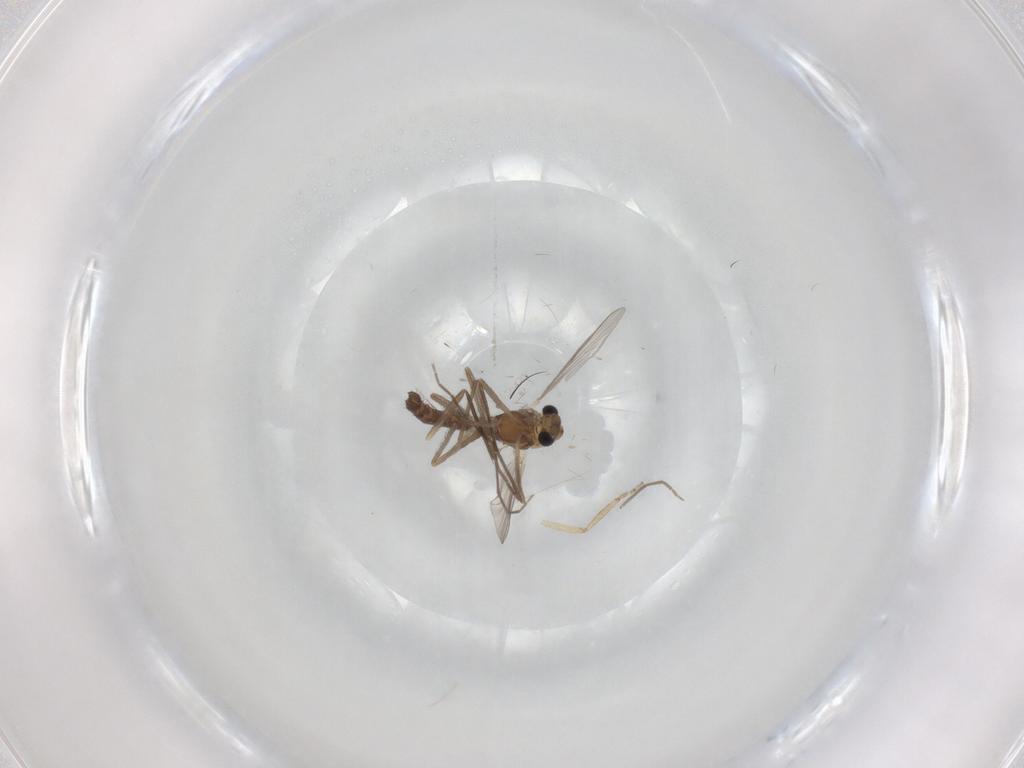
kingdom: Animalia
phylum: Arthropoda
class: Insecta
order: Diptera
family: Chironomidae
